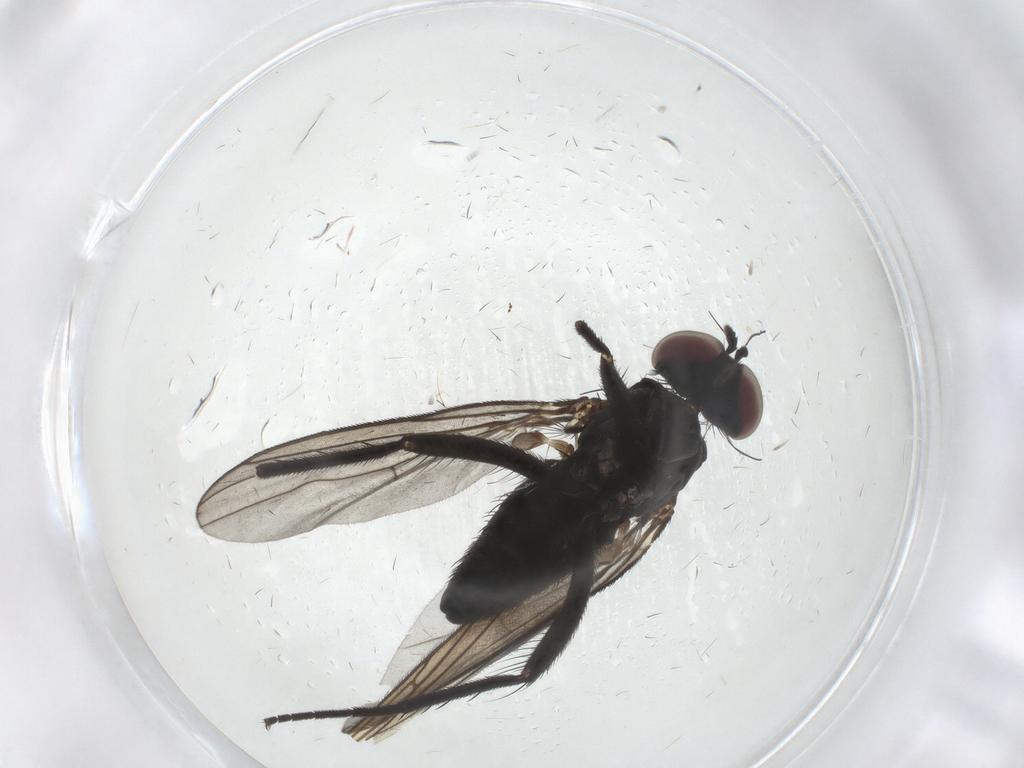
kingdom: Animalia
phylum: Arthropoda
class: Insecta
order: Diptera
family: Dolichopodidae
